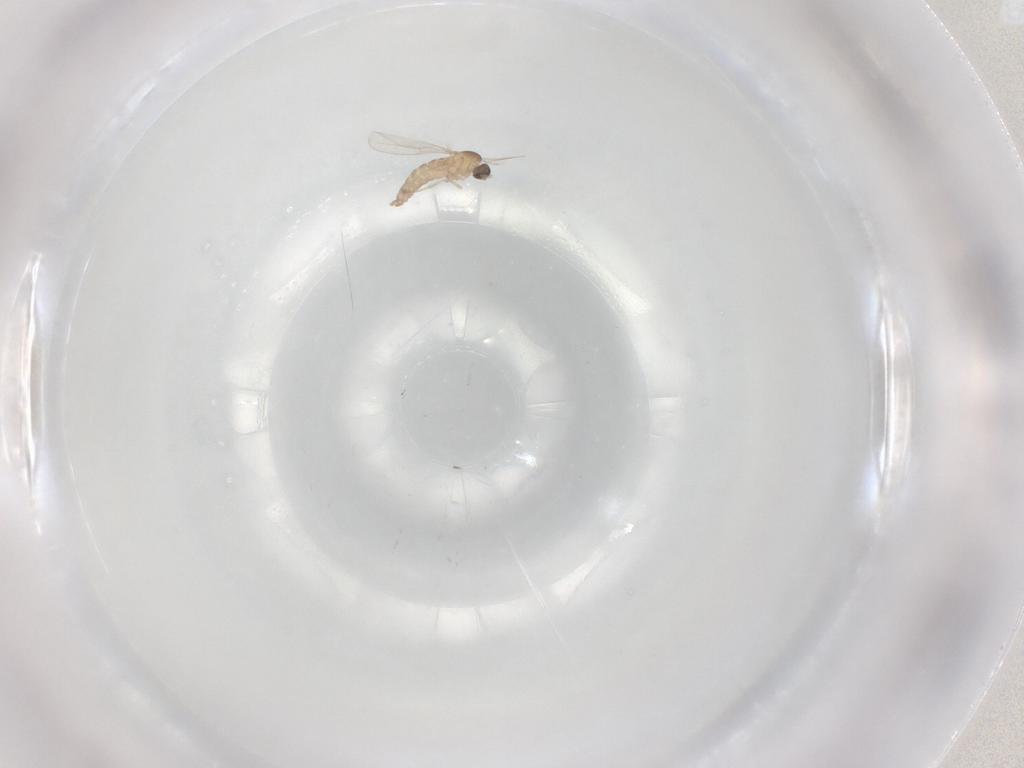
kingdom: Animalia
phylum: Arthropoda
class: Insecta
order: Diptera
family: Cecidomyiidae
